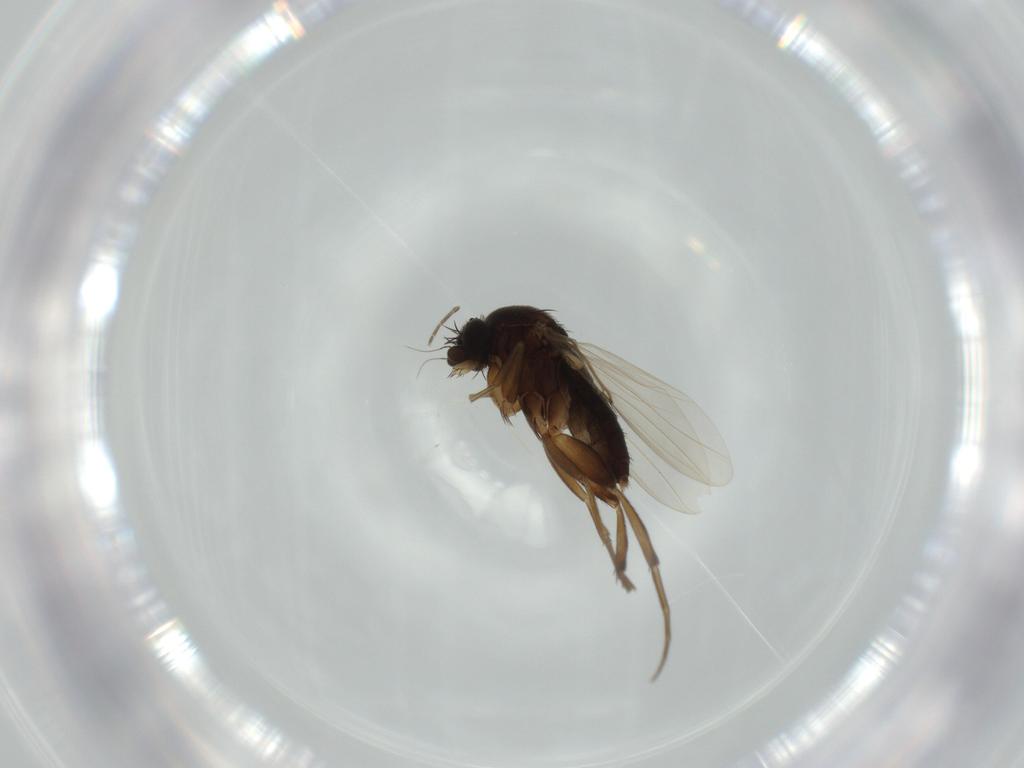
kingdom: Animalia
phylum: Arthropoda
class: Insecta
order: Diptera
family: Phoridae
